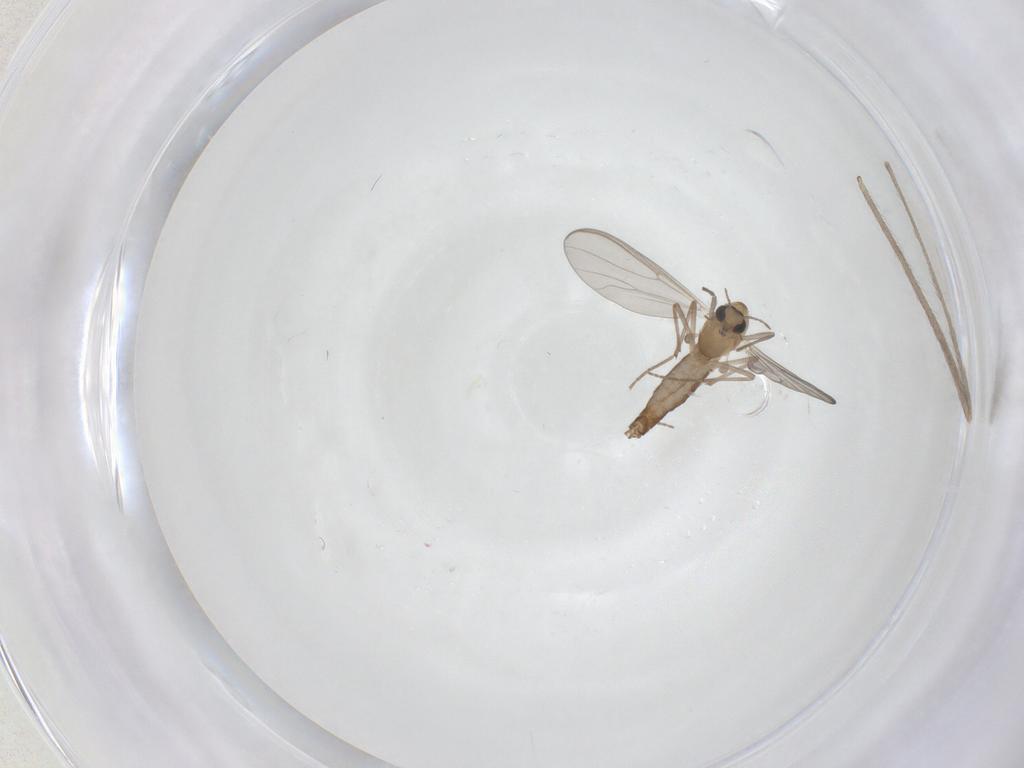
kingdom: Animalia
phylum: Arthropoda
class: Insecta
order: Diptera
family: Chironomidae
